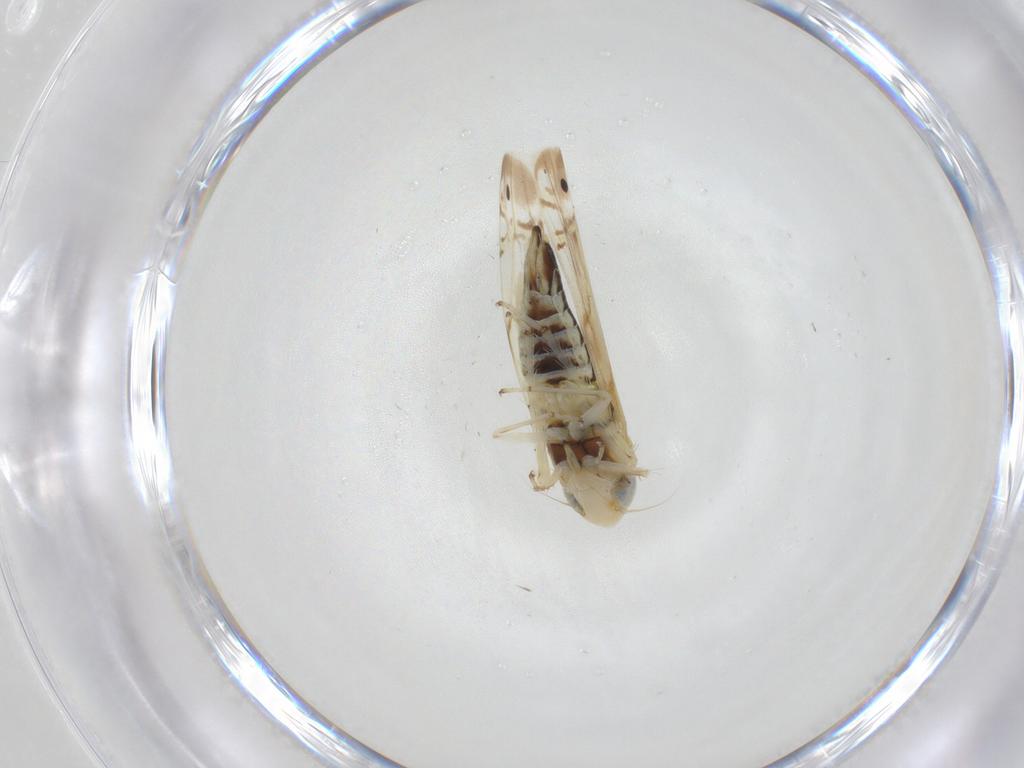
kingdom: Animalia
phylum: Arthropoda
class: Insecta
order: Hemiptera
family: Cicadellidae
